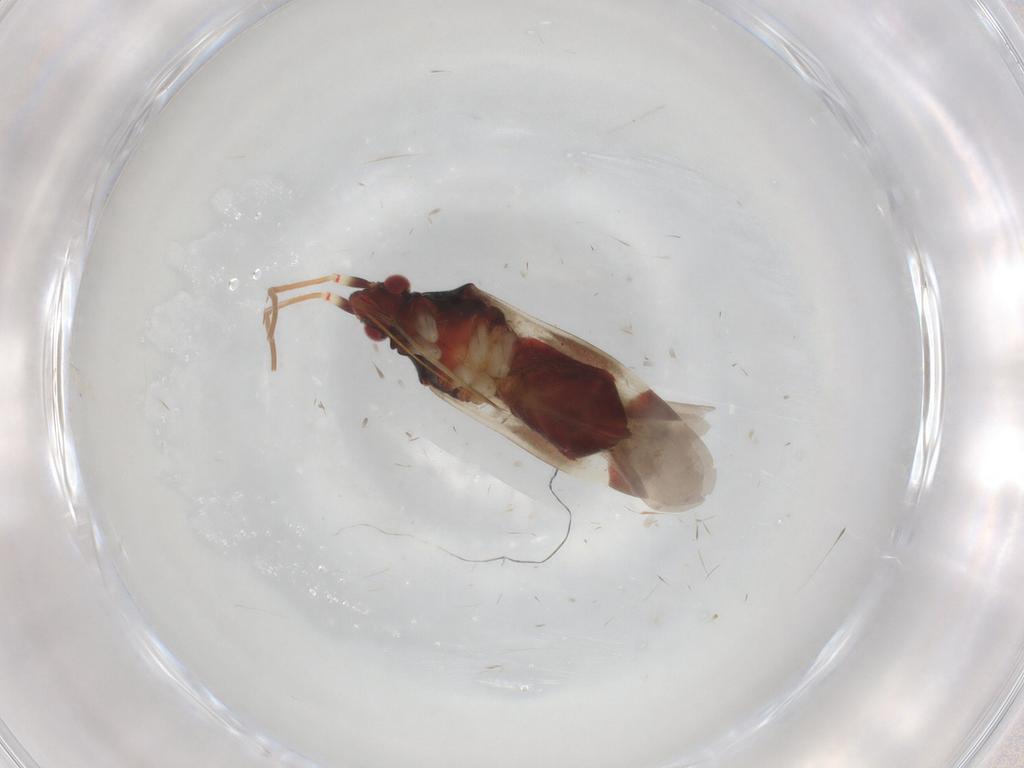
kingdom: Animalia
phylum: Arthropoda
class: Insecta
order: Hemiptera
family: Miridae
